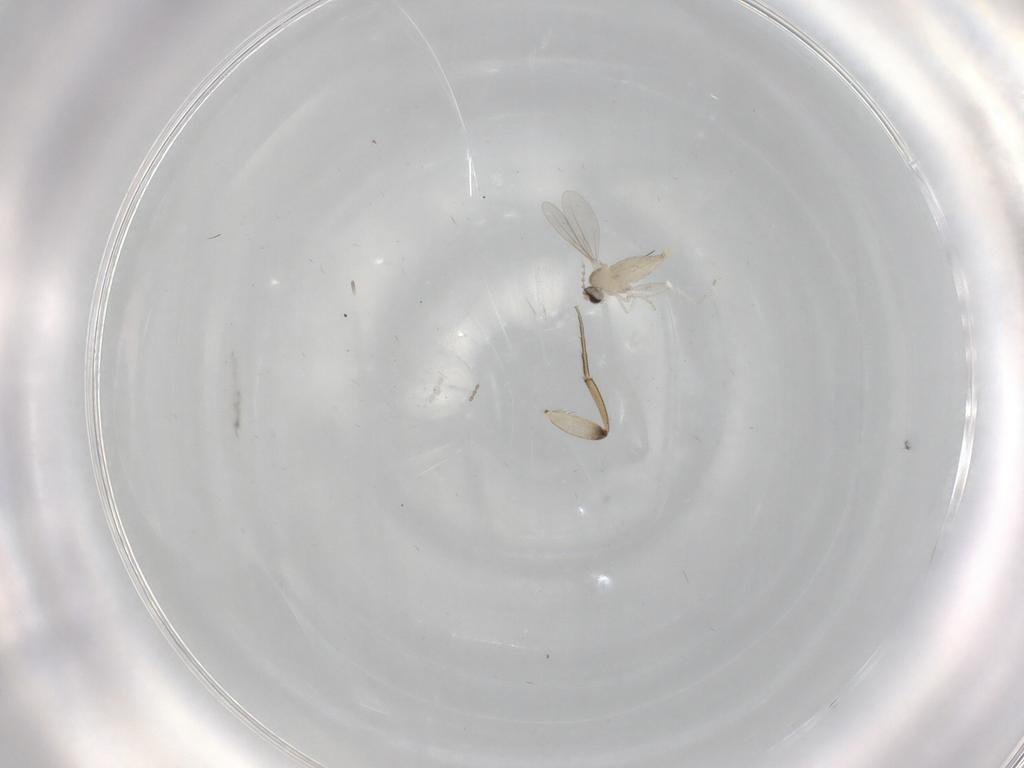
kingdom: Animalia
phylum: Arthropoda
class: Insecta
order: Diptera
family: Cecidomyiidae
